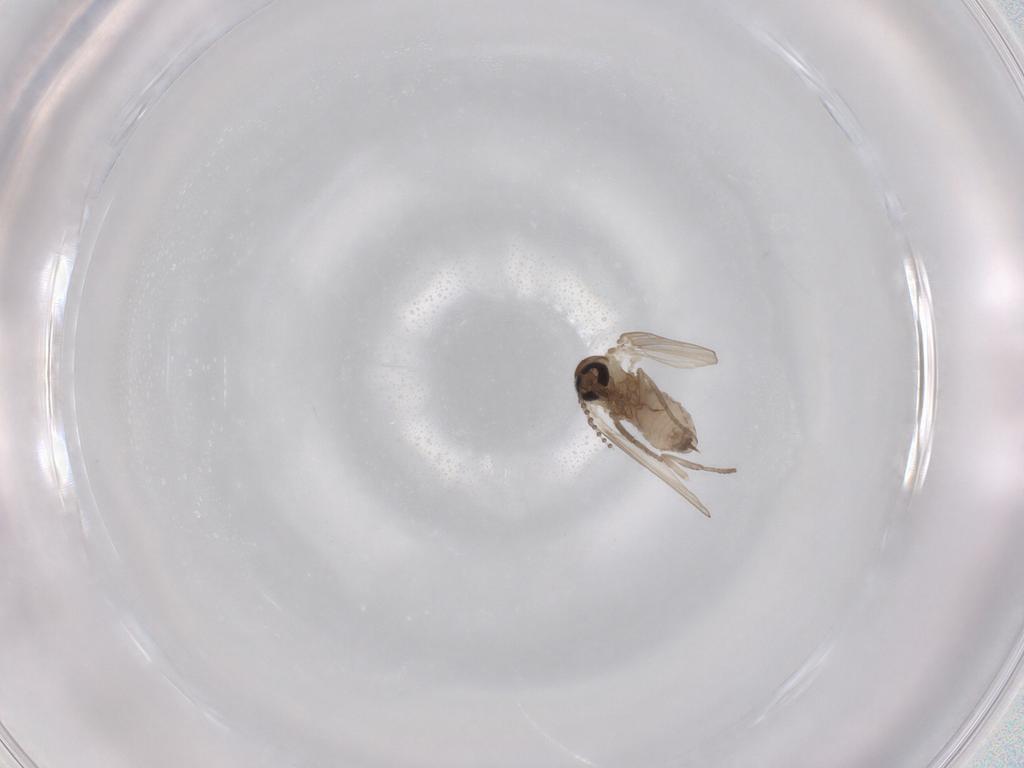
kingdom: Animalia
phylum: Arthropoda
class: Insecta
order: Diptera
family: Psychodidae
